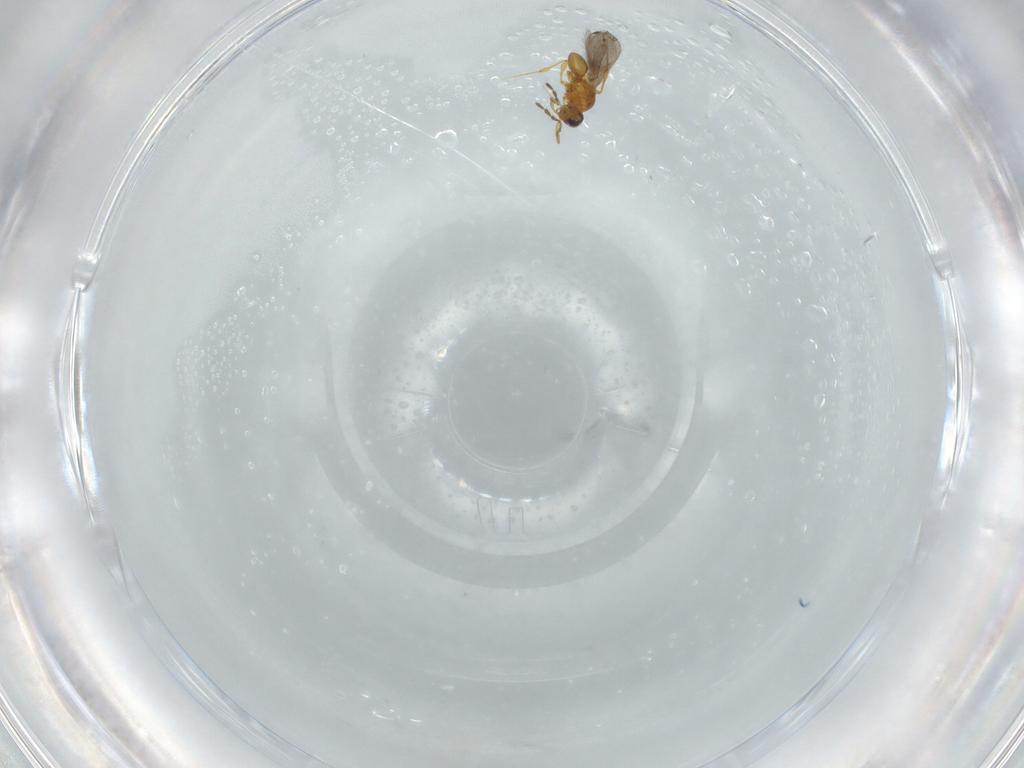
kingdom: Animalia
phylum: Arthropoda
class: Insecta
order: Hymenoptera
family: Platygastridae
